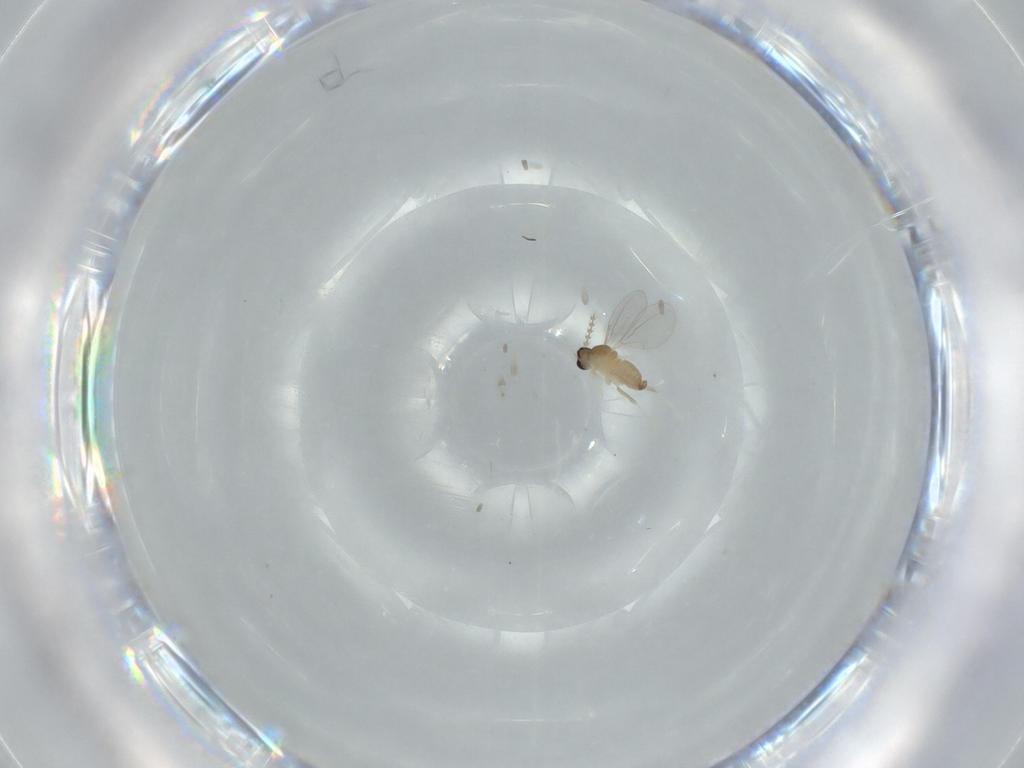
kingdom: Animalia
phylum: Arthropoda
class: Insecta
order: Diptera
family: Cecidomyiidae
